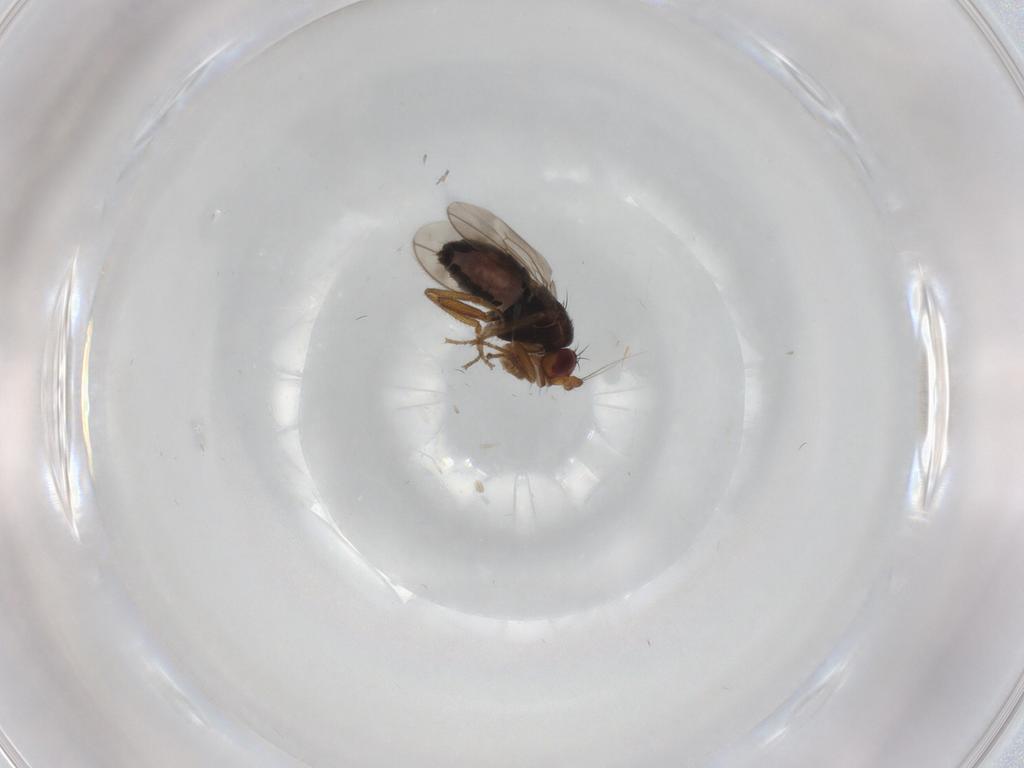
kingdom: Animalia
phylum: Arthropoda
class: Insecta
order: Diptera
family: Sphaeroceridae
